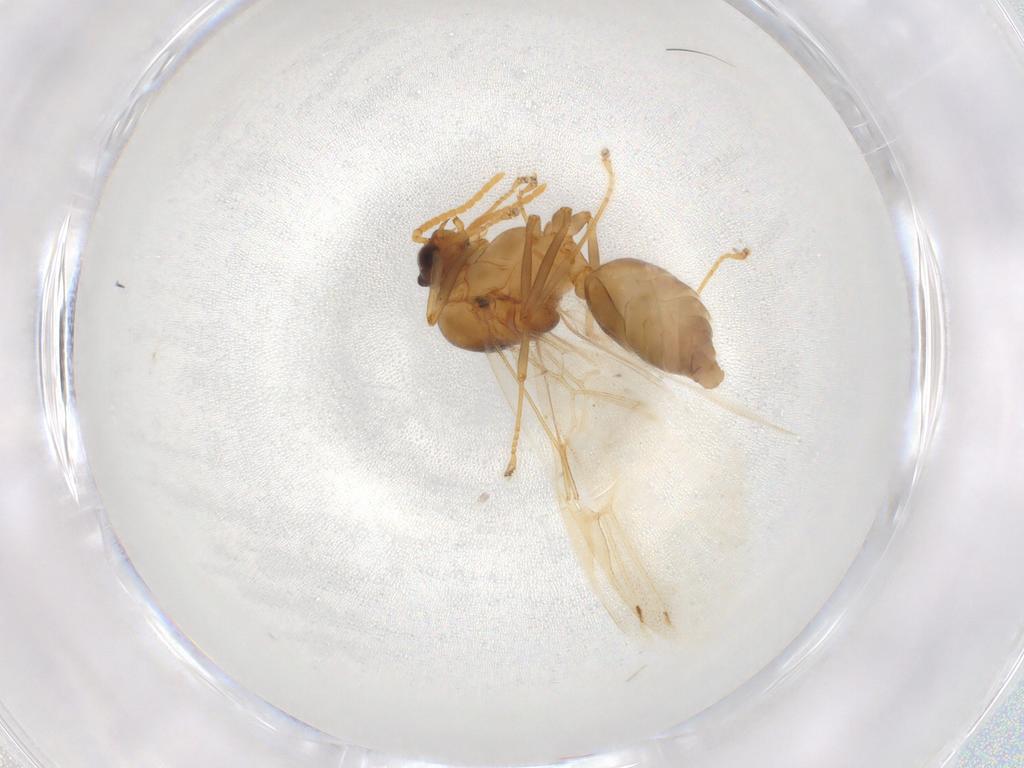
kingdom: Animalia
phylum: Arthropoda
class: Insecta
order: Hymenoptera
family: Formicidae
